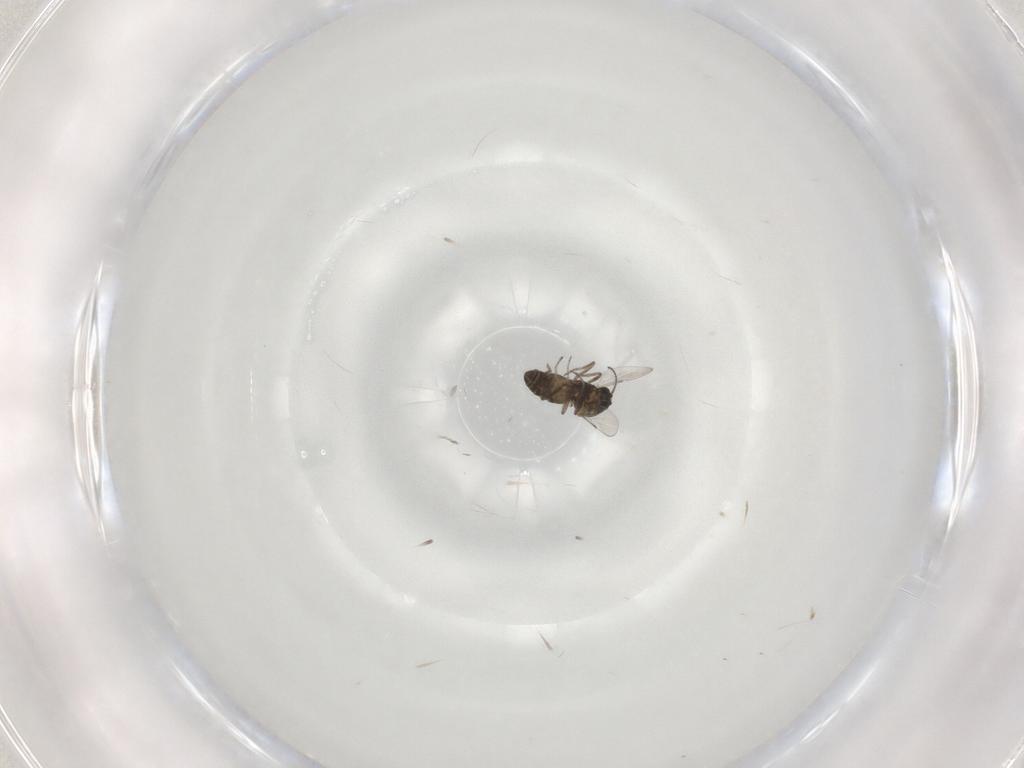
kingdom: Animalia
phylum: Arthropoda
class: Insecta
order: Diptera
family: Ceratopogonidae
